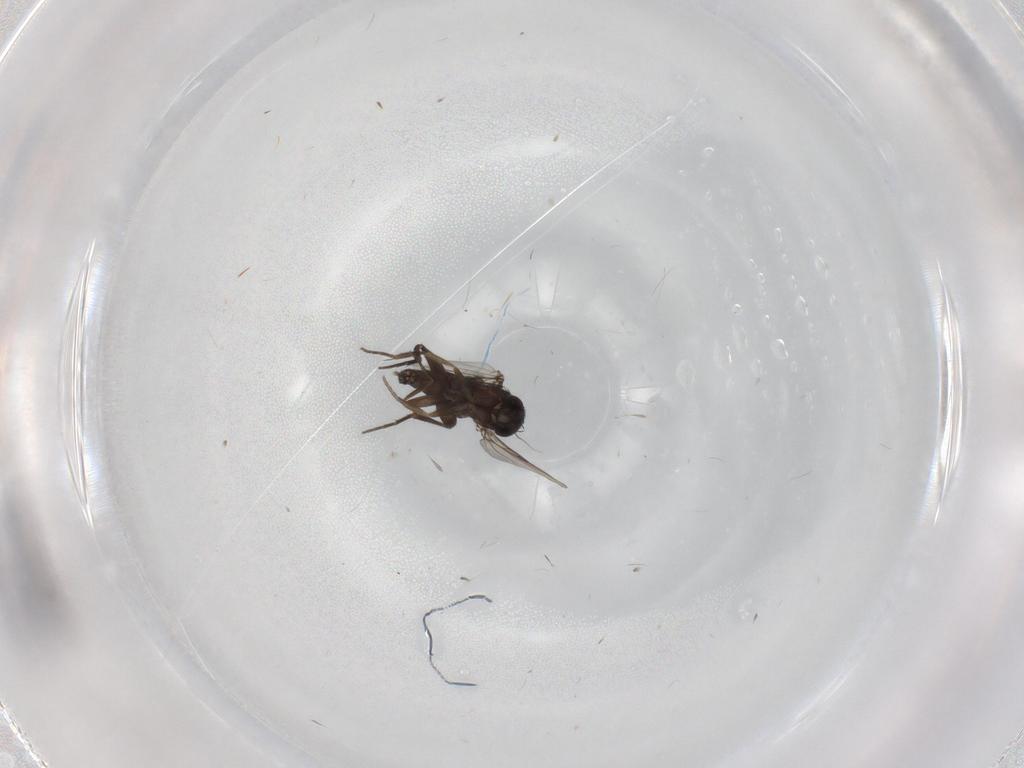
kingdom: Animalia
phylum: Arthropoda
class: Insecta
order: Diptera
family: Phoridae
